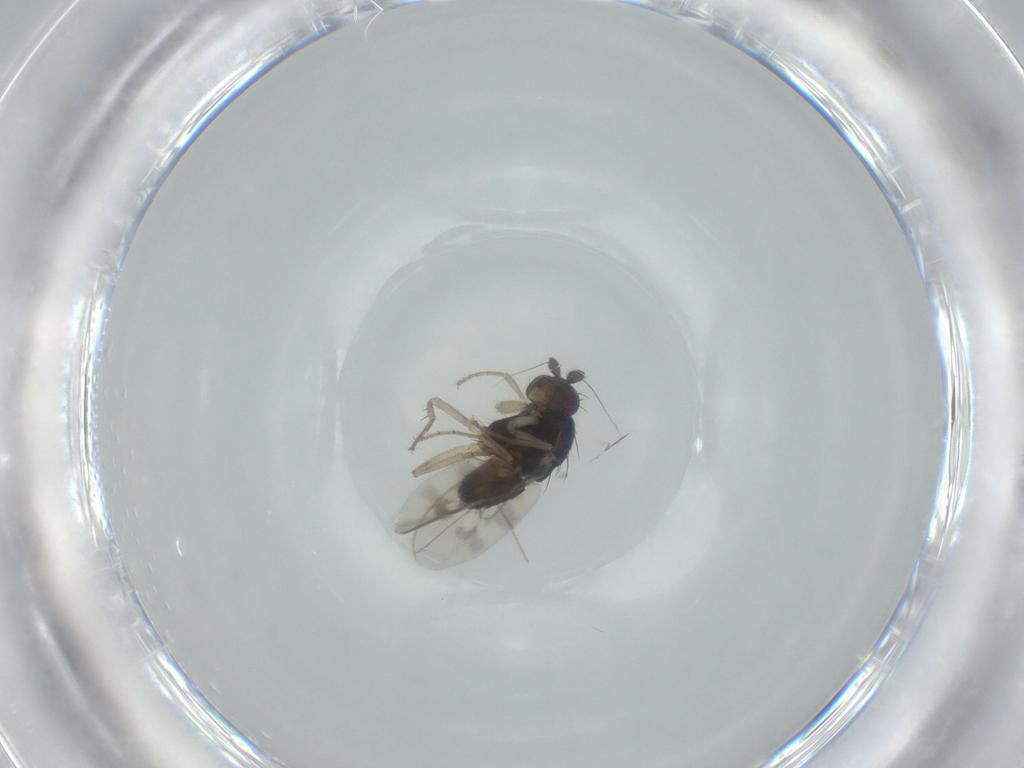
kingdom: Animalia
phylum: Arthropoda
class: Insecta
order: Diptera
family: Sphaeroceridae
